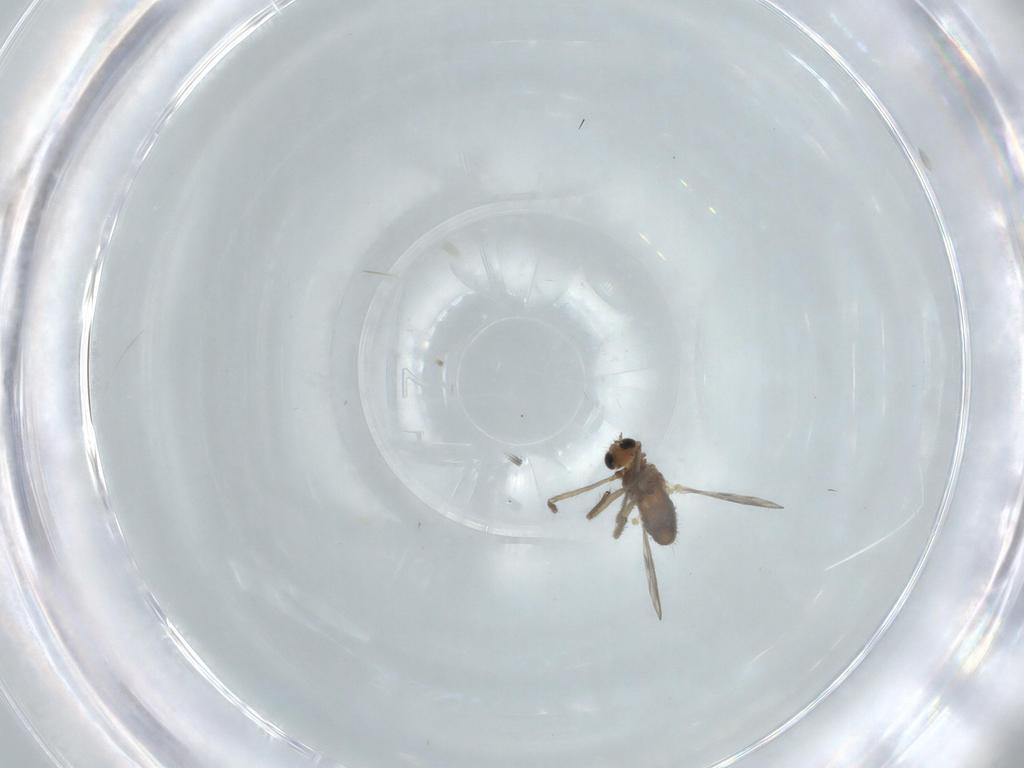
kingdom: Animalia
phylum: Arthropoda
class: Insecta
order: Diptera
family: Chironomidae
